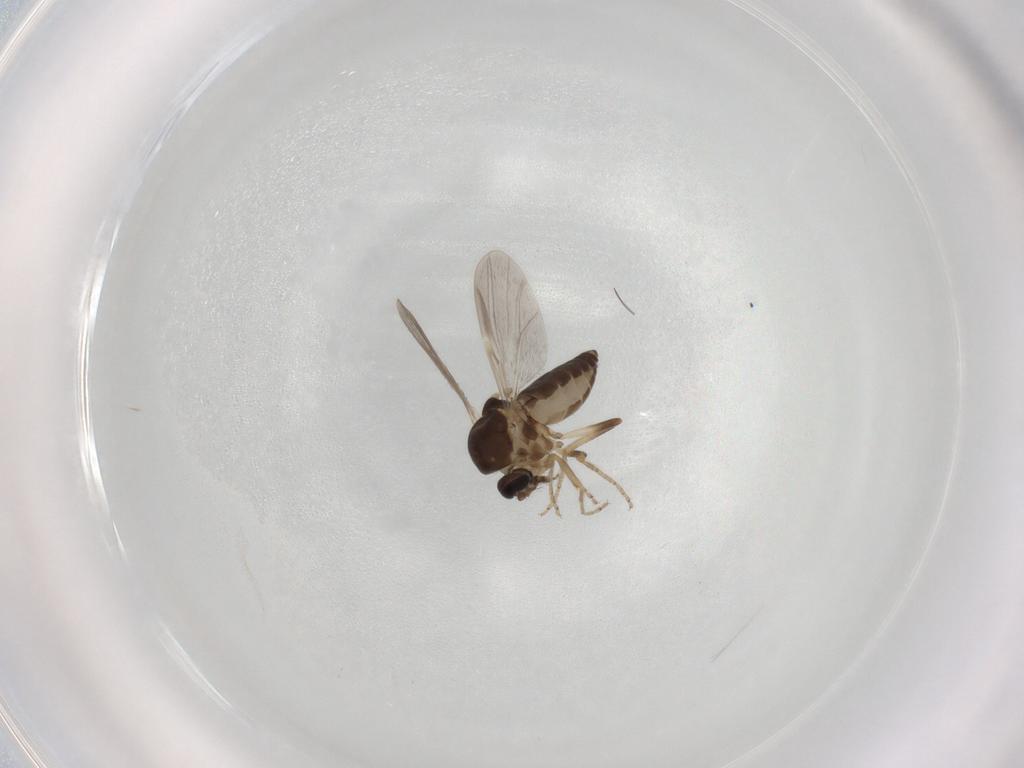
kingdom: Animalia
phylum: Arthropoda
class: Insecta
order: Diptera
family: Ceratopogonidae
